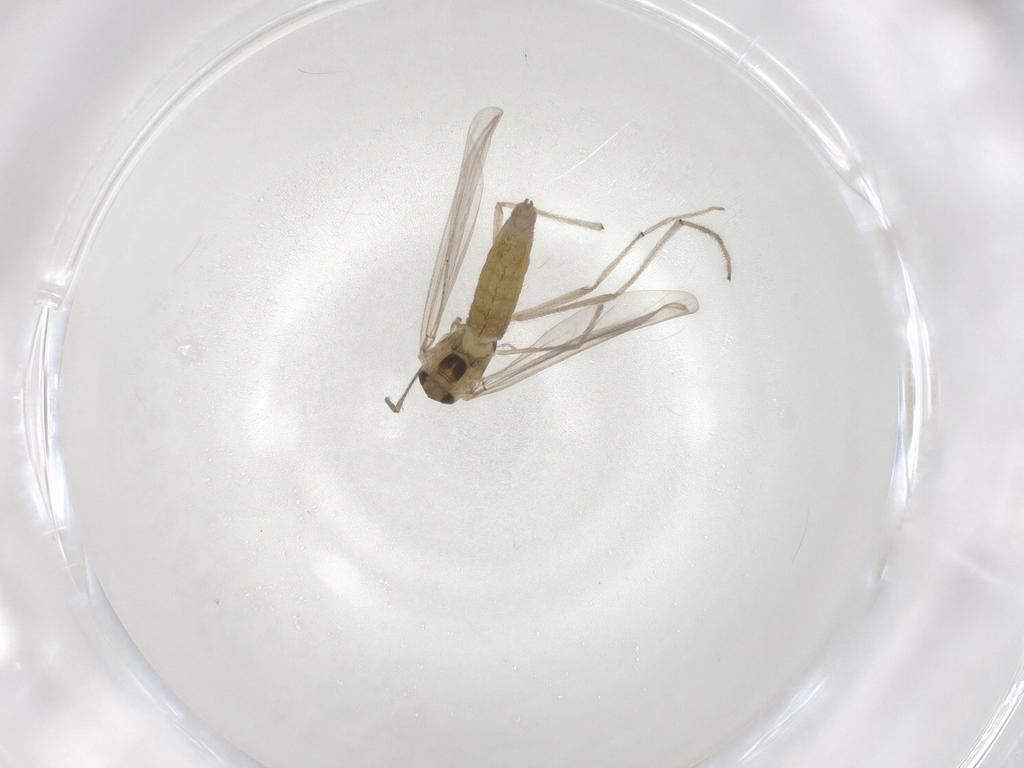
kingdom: Animalia
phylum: Arthropoda
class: Insecta
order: Diptera
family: Chironomidae
